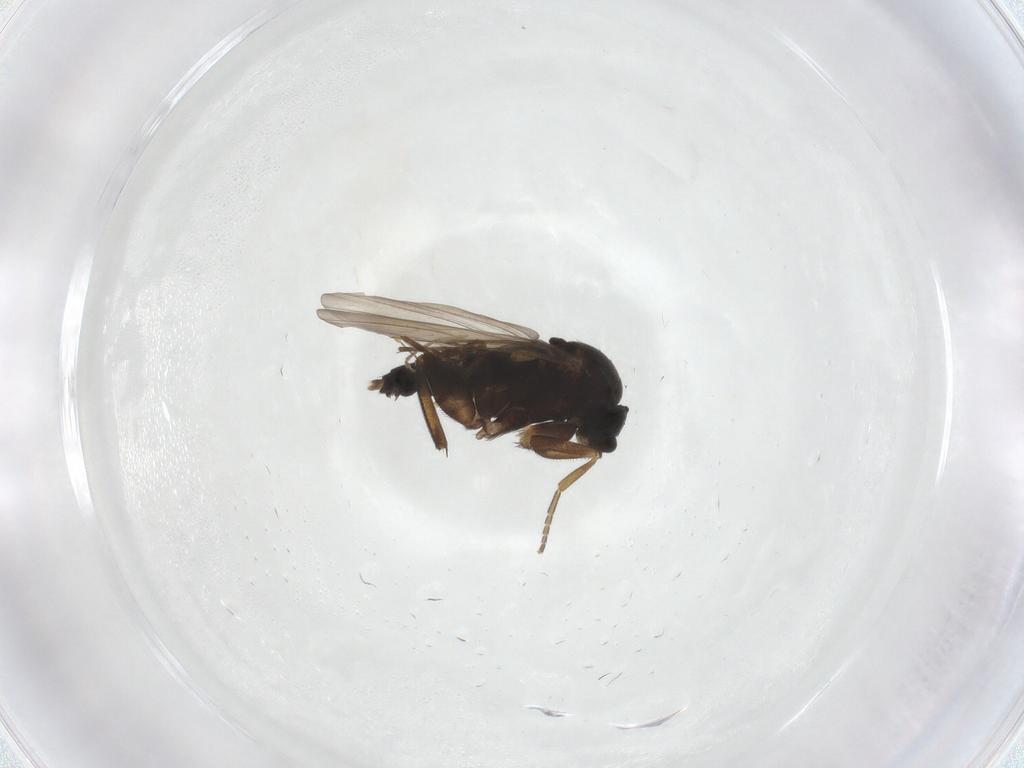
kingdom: Animalia
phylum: Arthropoda
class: Insecta
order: Diptera
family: Phoridae
